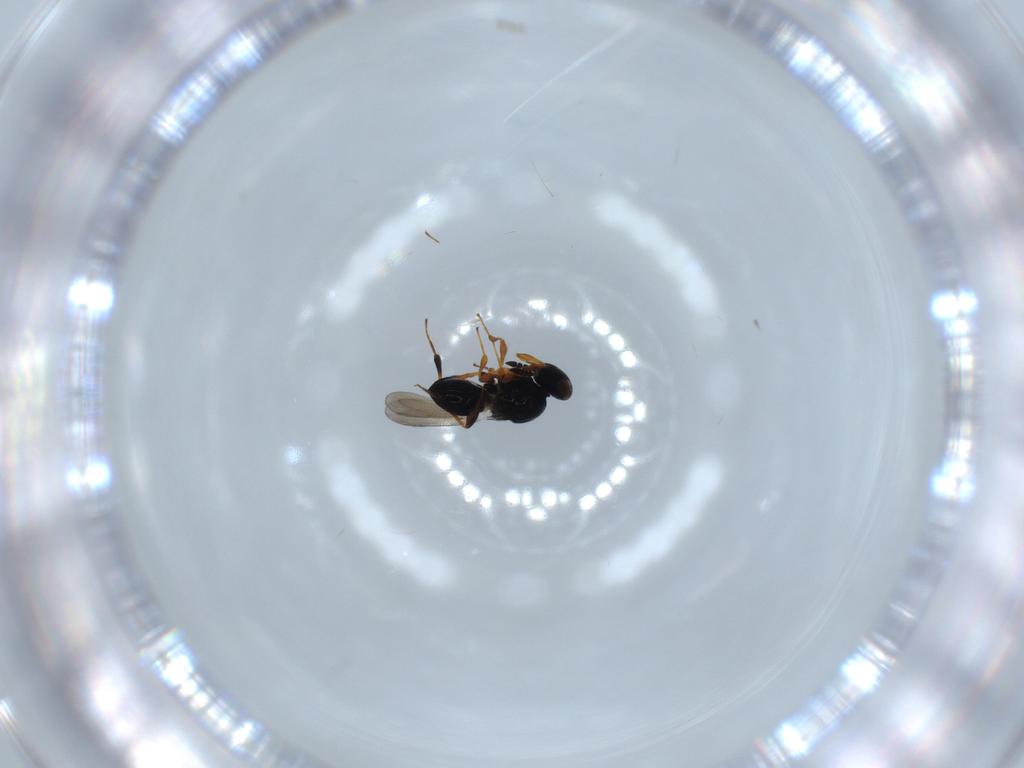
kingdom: Animalia
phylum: Arthropoda
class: Insecta
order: Hymenoptera
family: Platygastridae
